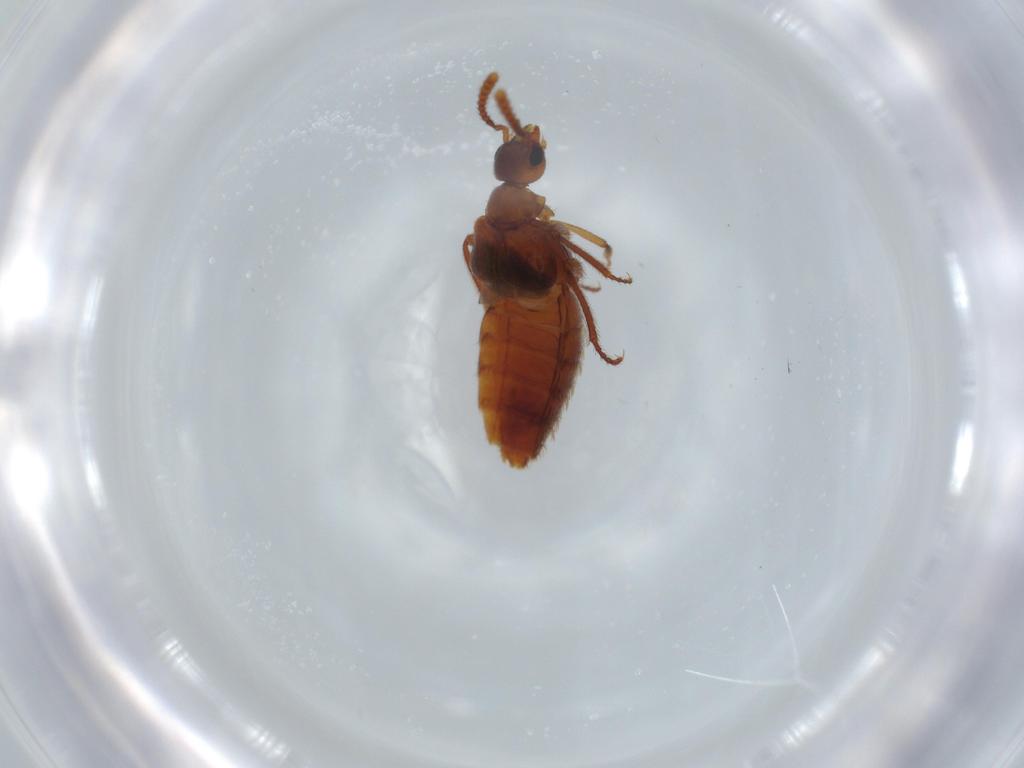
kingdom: Animalia
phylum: Arthropoda
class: Insecta
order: Coleoptera
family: Staphylinidae
